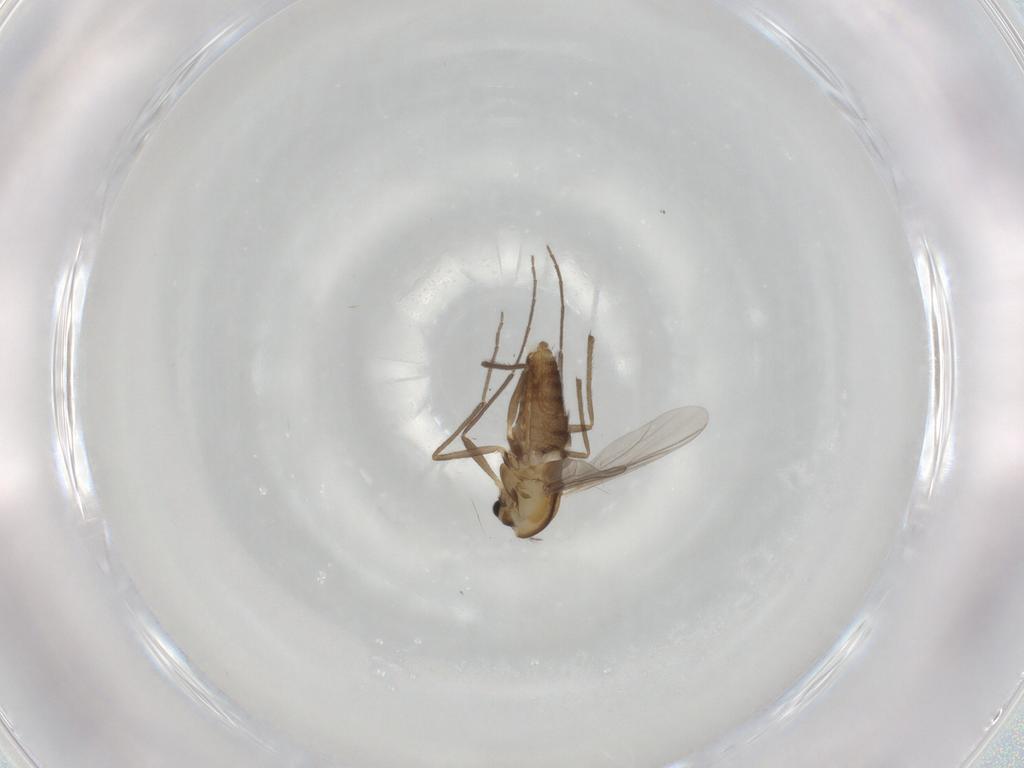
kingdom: Animalia
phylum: Arthropoda
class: Insecta
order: Diptera
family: Chironomidae
